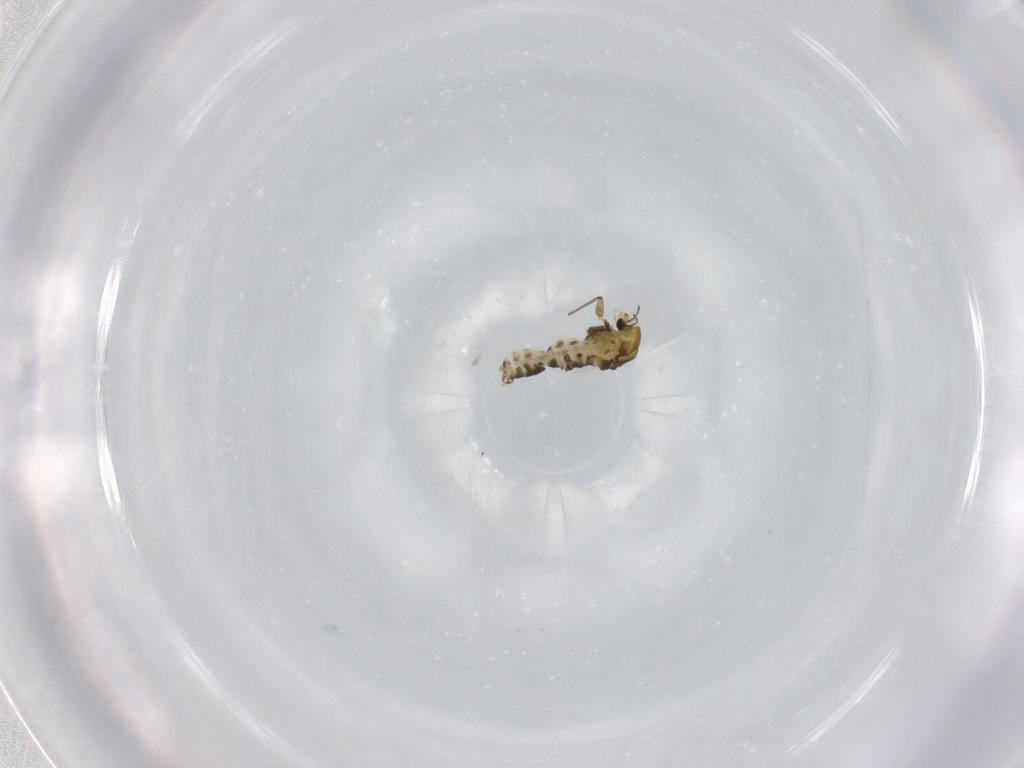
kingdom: Animalia
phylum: Arthropoda
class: Insecta
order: Diptera
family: Chironomidae
